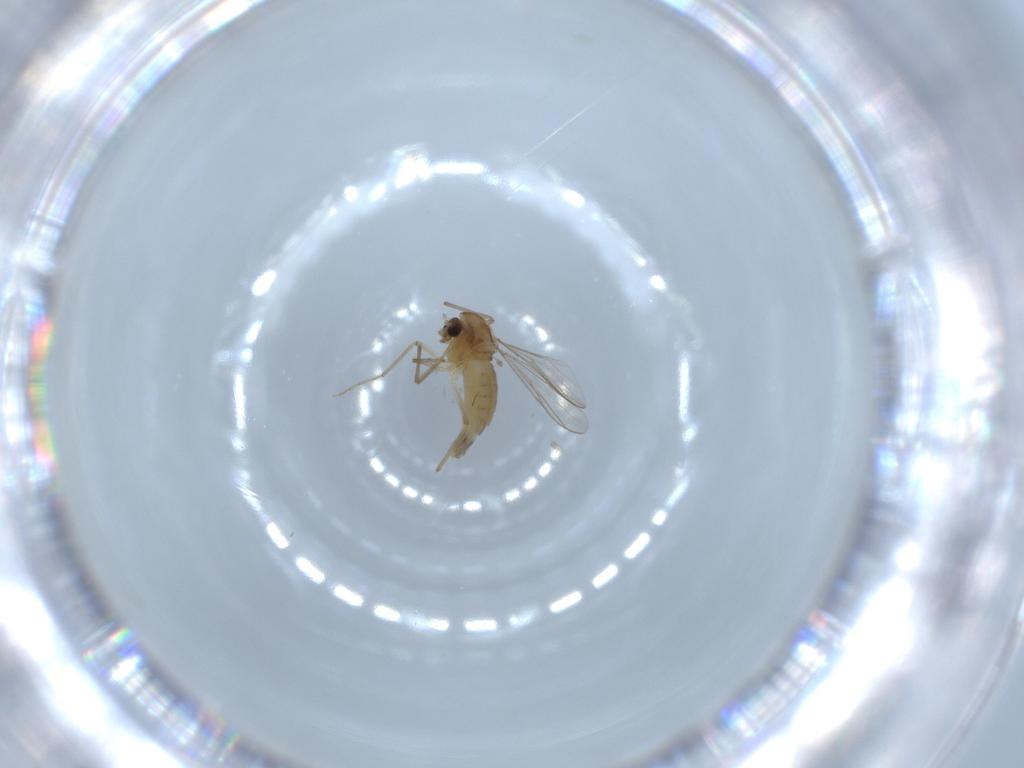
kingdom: Animalia
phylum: Arthropoda
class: Insecta
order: Diptera
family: Chironomidae
